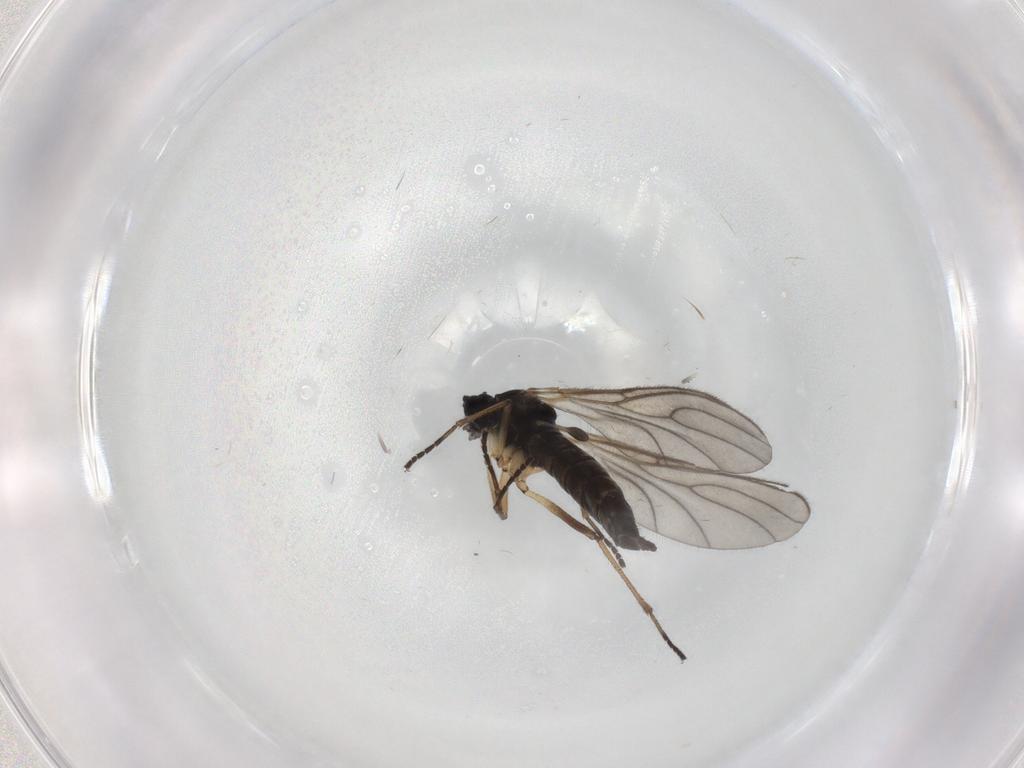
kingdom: Animalia
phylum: Arthropoda
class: Insecta
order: Diptera
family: Sciaridae
